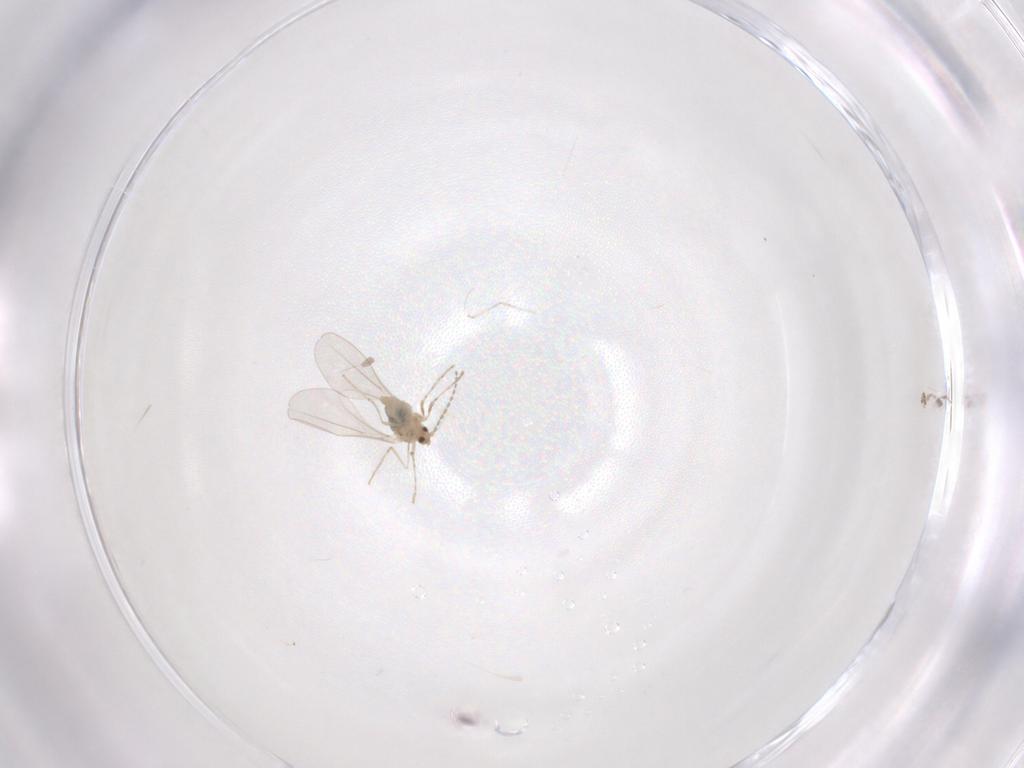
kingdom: Animalia
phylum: Arthropoda
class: Insecta
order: Diptera
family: Cecidomyiidae
